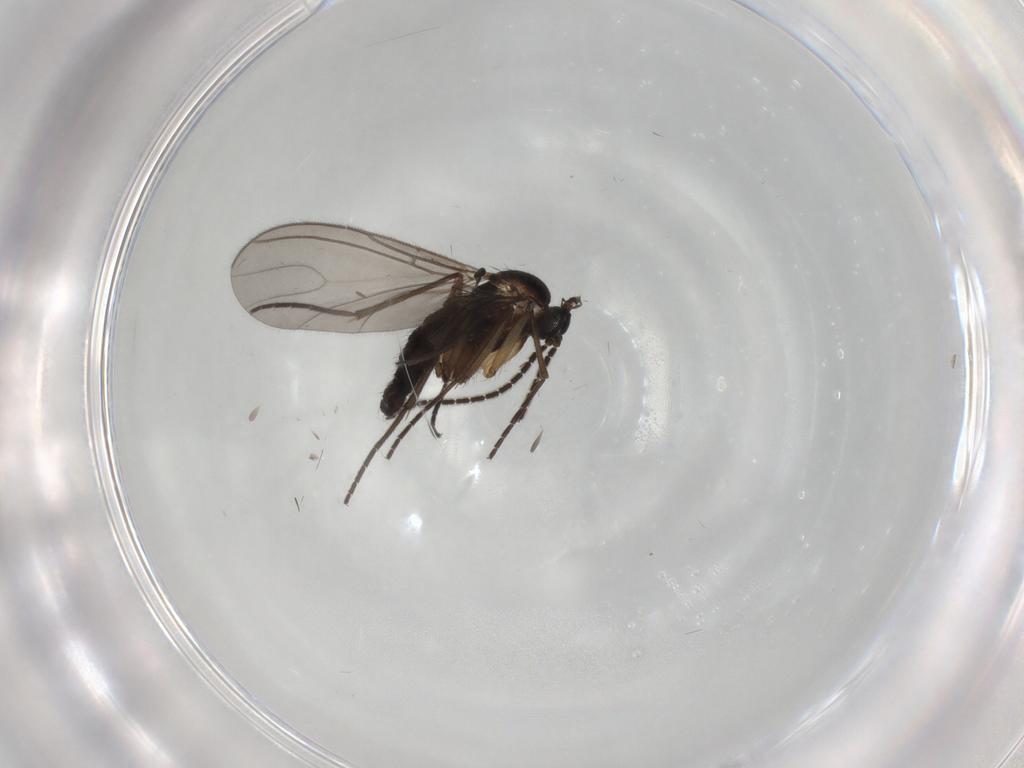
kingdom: Animalia
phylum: Arthropoda
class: Insecta
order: Diptera
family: Sciaridae
